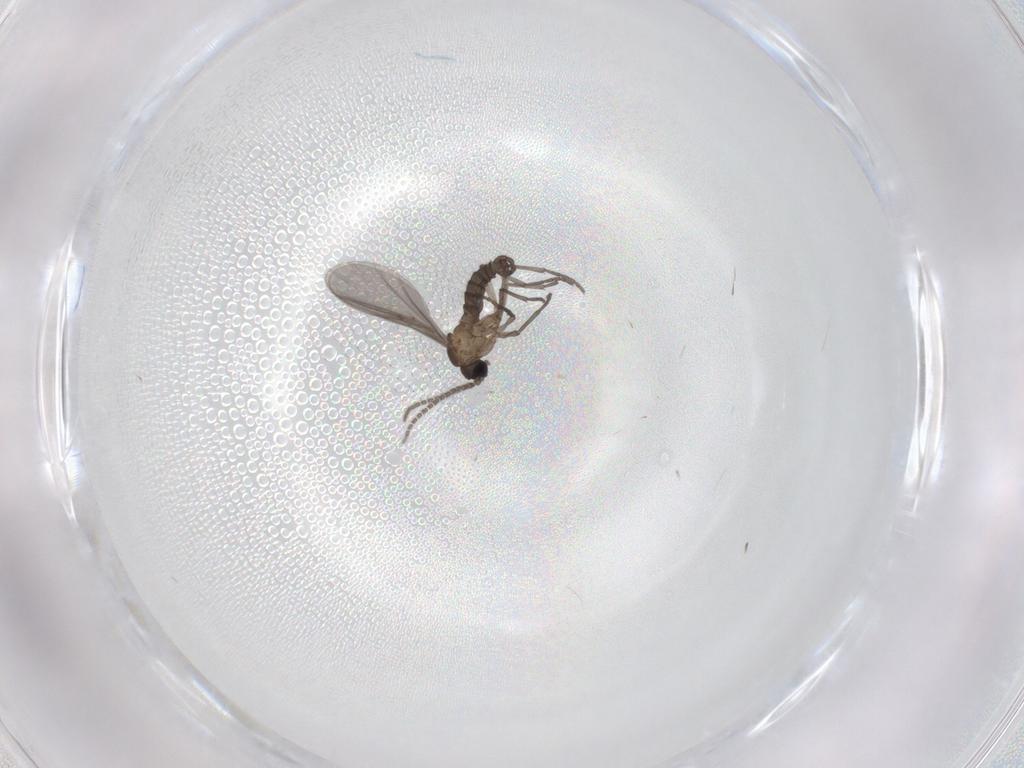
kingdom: Animalia
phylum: Arthropoda
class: Insecta
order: Diptera
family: Sciaridae
